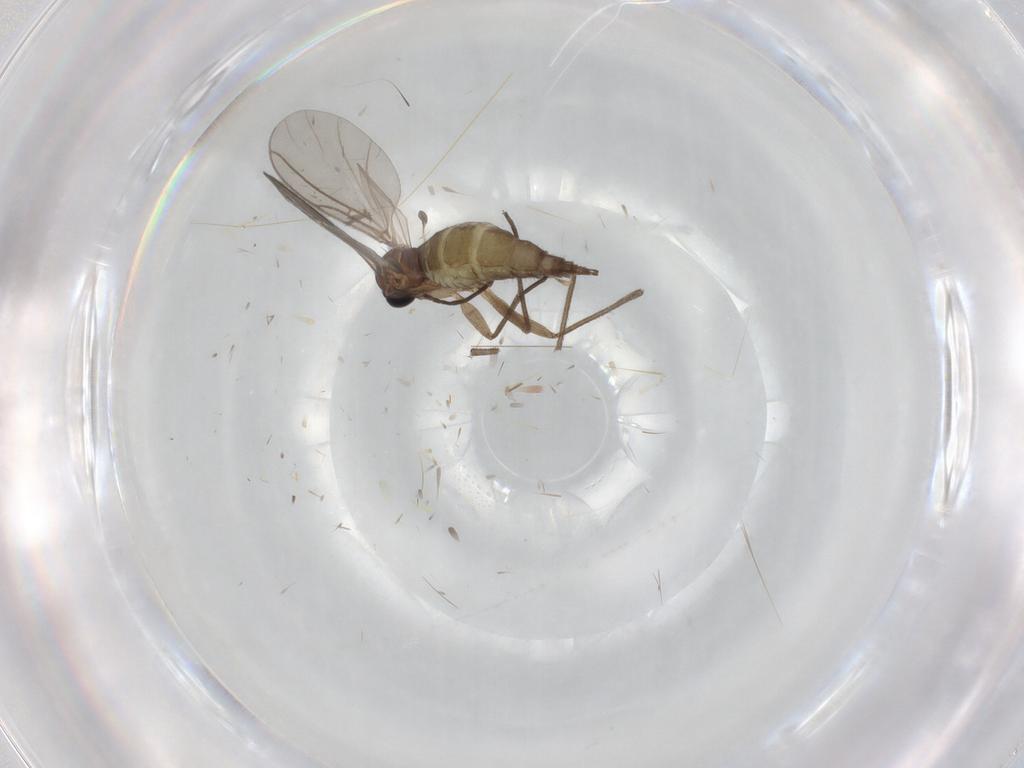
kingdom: Animalia
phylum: Arthropoda
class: Insecta
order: Diptera
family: Sciaridae
